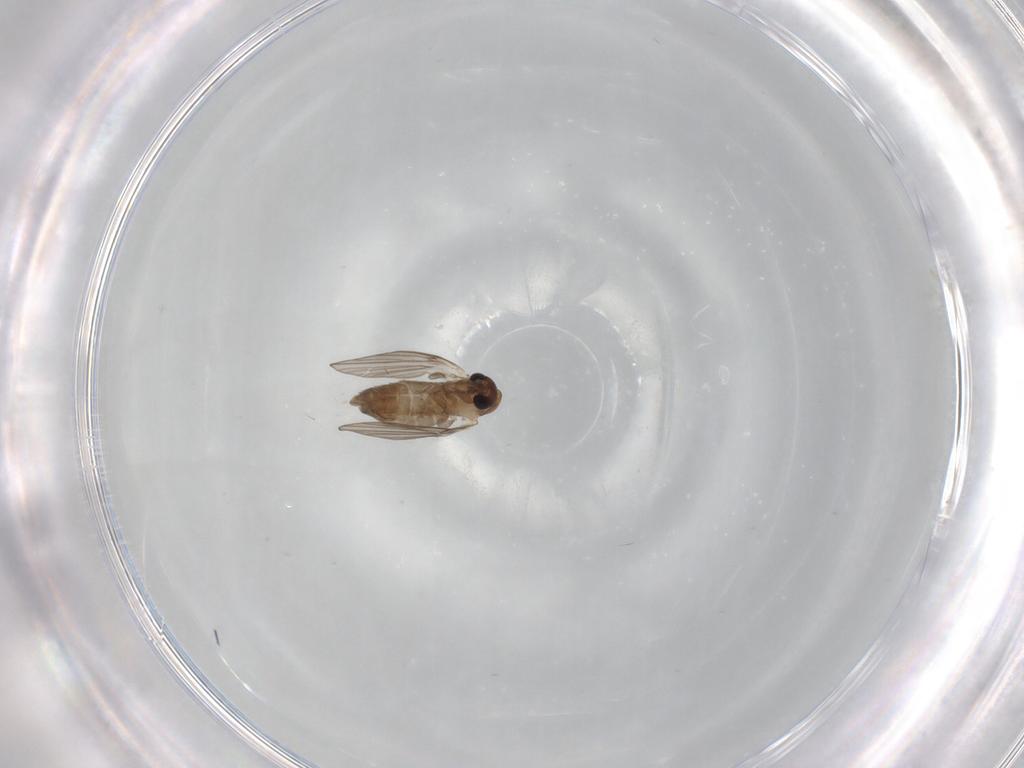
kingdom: Animalia
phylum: Arthropoda
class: Insecta
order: Diptera
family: Psychodidae
